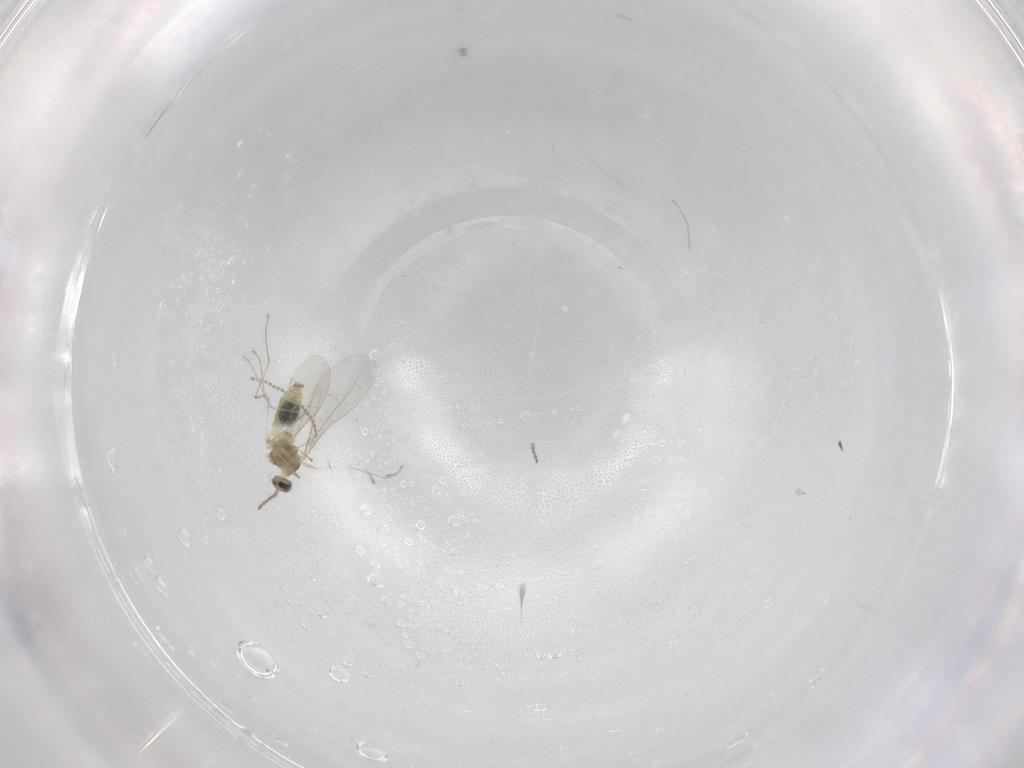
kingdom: Animalia
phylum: Arthropoda
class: Insecta
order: Diptera
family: Cecidomyiidae
